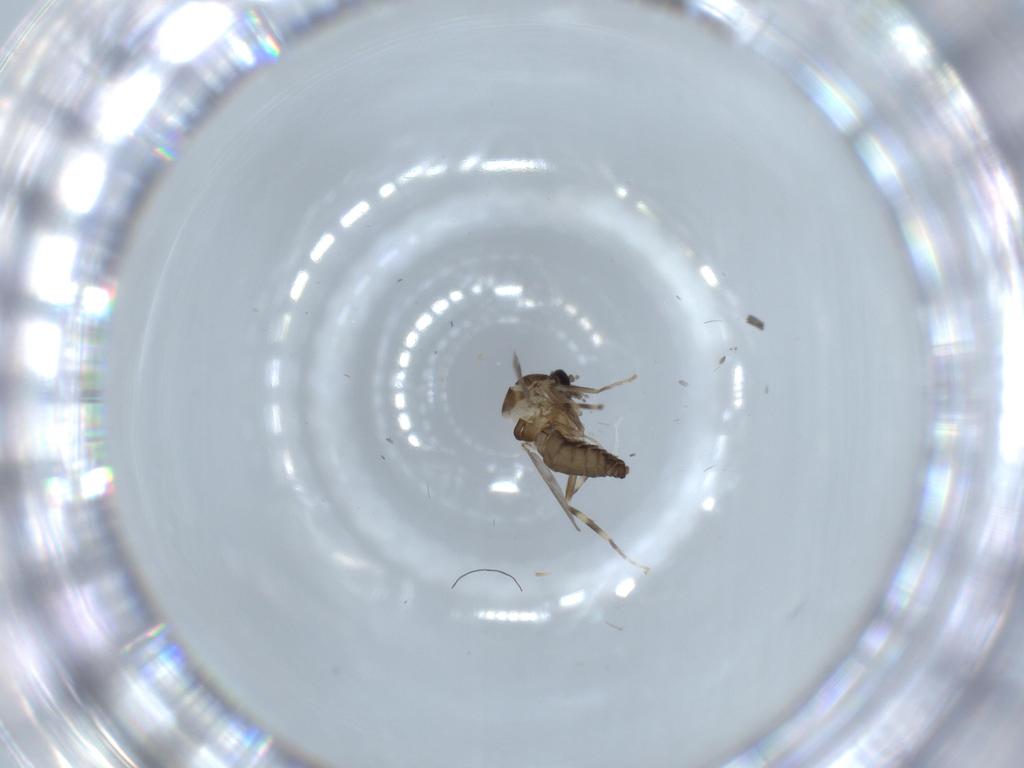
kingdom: Animalia
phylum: Arthropoda
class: Insecta
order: Diptera
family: Ceratopogonidae
